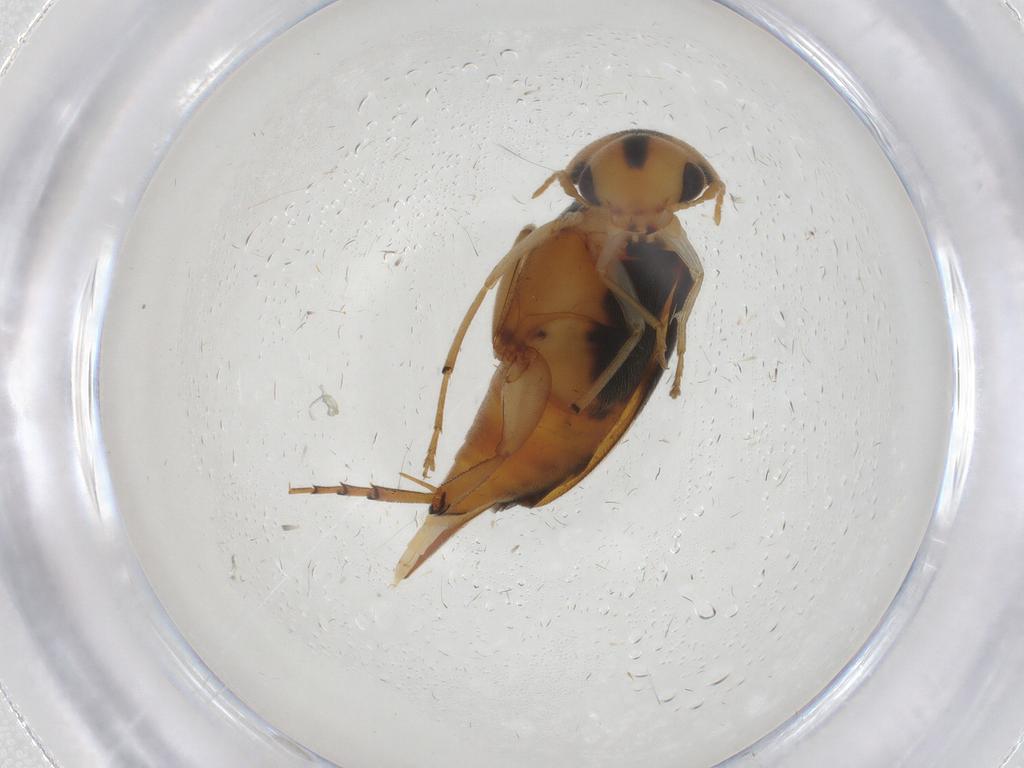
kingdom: Animalia
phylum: Arthropoda
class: Insecta
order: Coleoptera
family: Mordellidae
